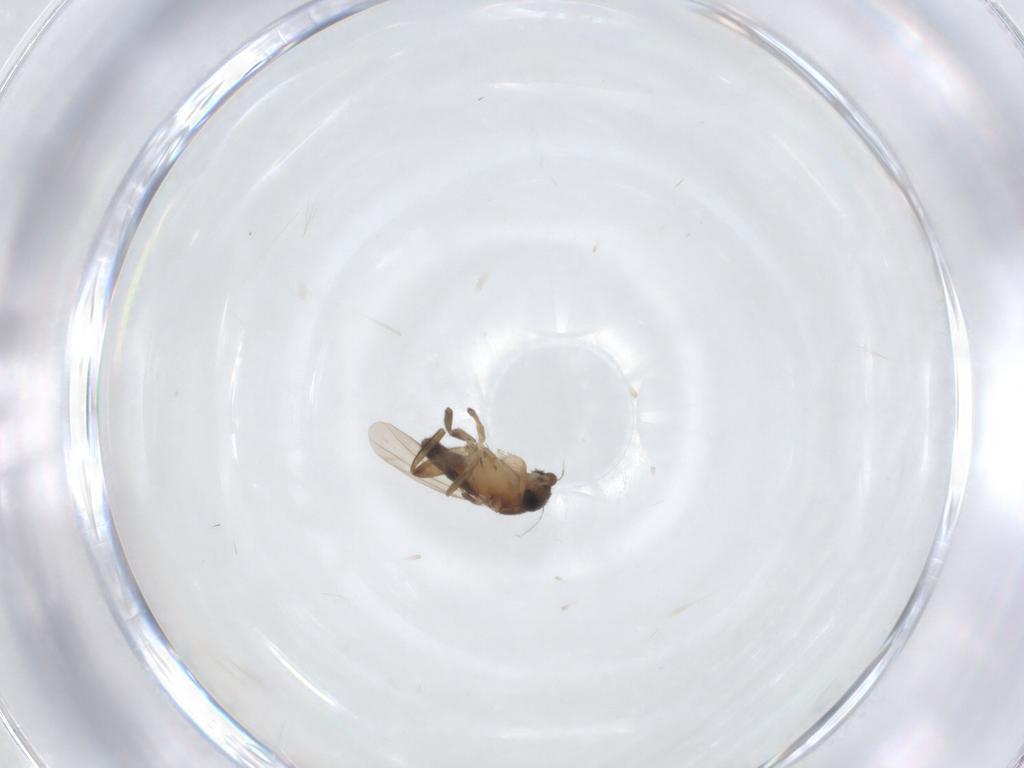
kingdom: Animalia
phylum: Arthropoda
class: Insecta
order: Diptera
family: Phoridae
